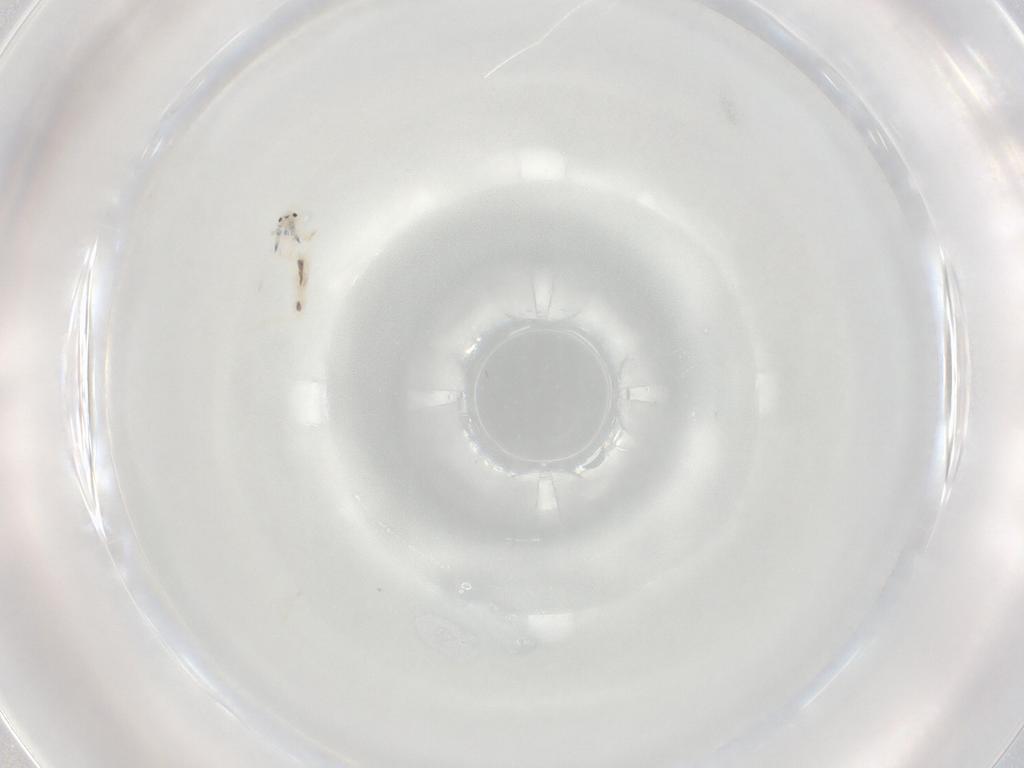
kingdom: Animalia
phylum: Arthropoda
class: Collembola
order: Entomobryomorpha
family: Entomobryidae
